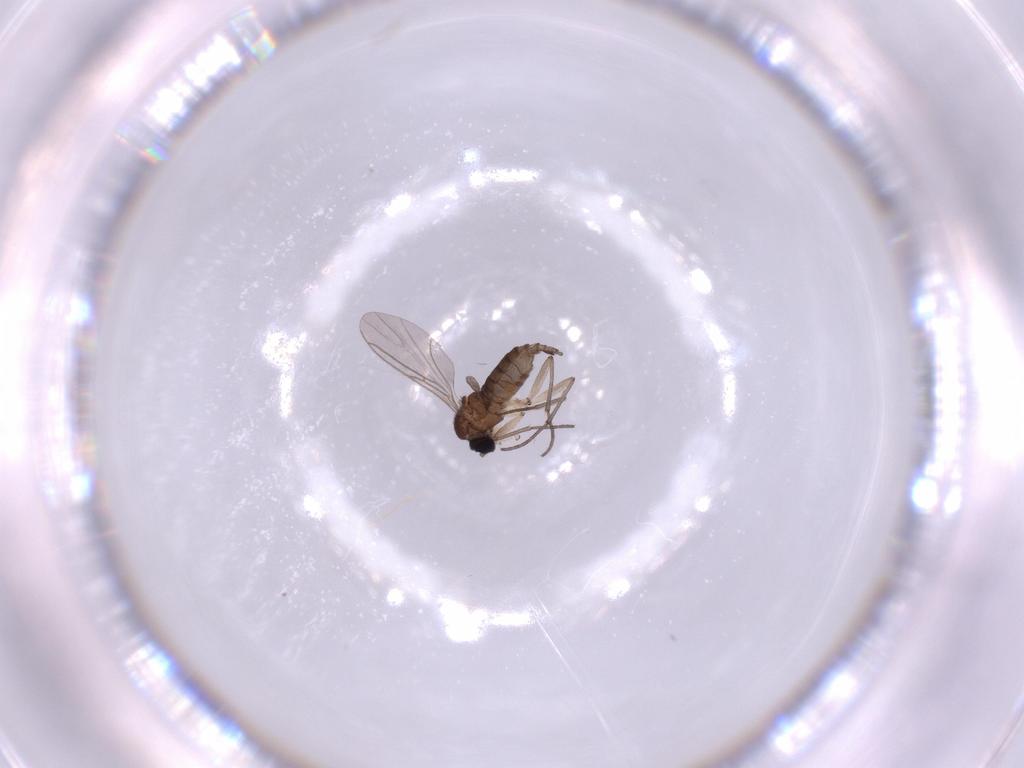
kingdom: Animalia
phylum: Arthropoda
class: Insecta
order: Diptera
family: Sciaridae
